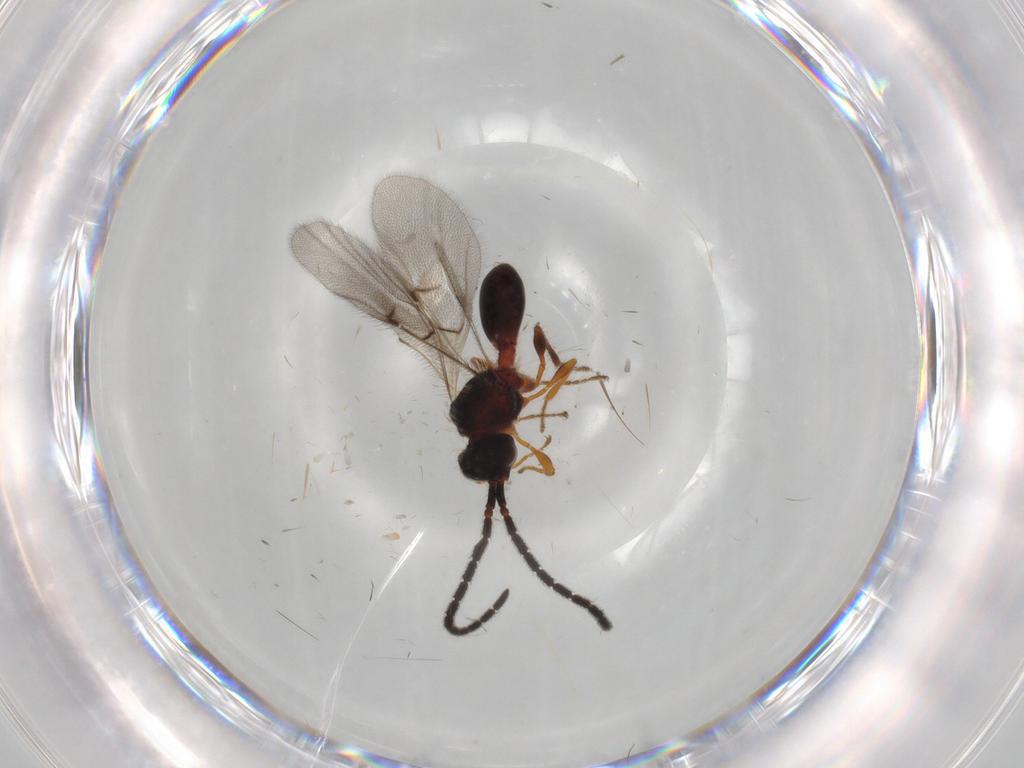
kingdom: Animalia
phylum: Arthropoda
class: Insecta
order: Hymenoptera
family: Diapriidae
